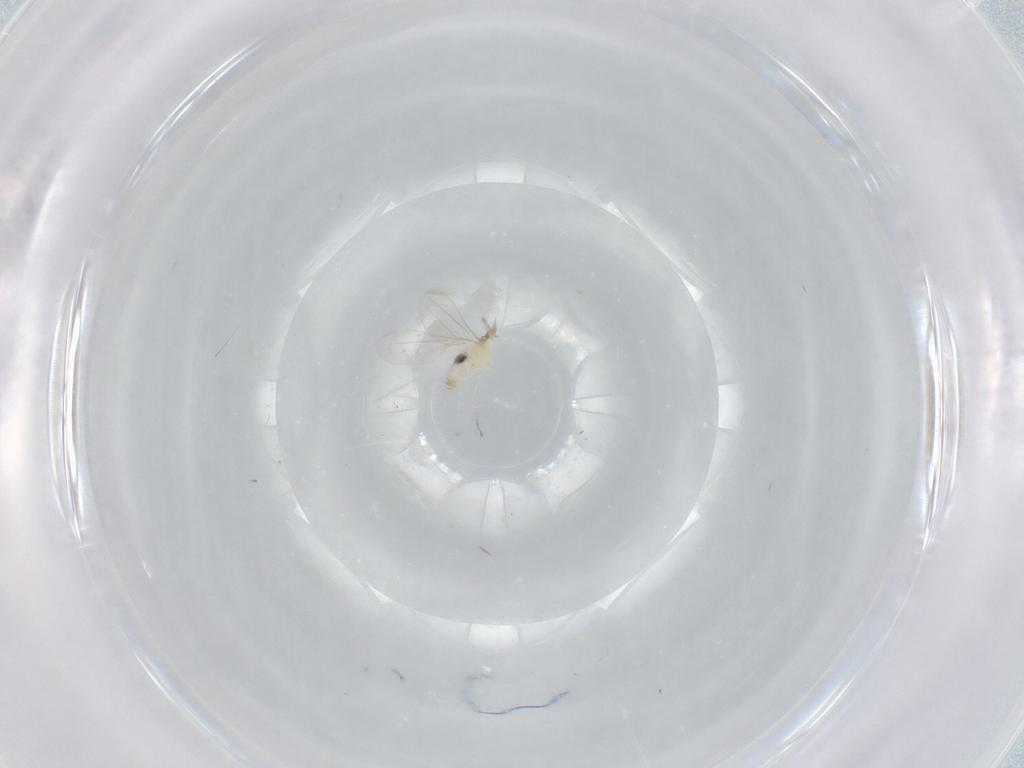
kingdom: Animalia
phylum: Arthropoda
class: Insecta
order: Diptera
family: Cecidomyiidae
